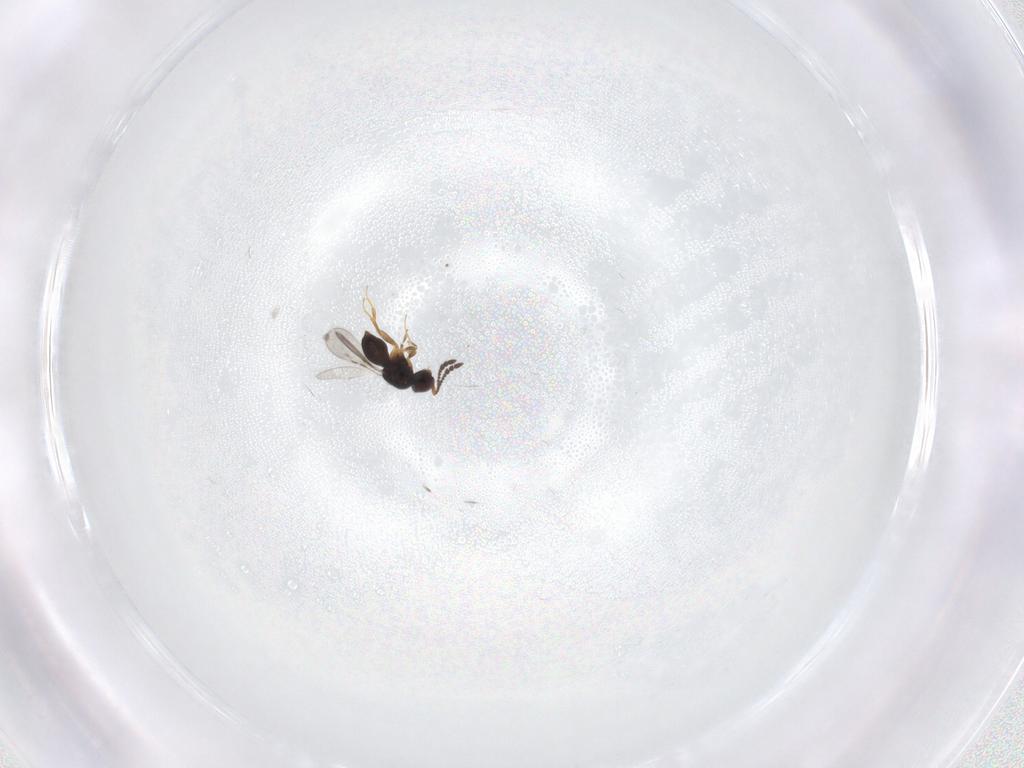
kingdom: Animalia
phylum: Arthropoda
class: Insecta
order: Hymenoptera
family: Ceraphronidae
